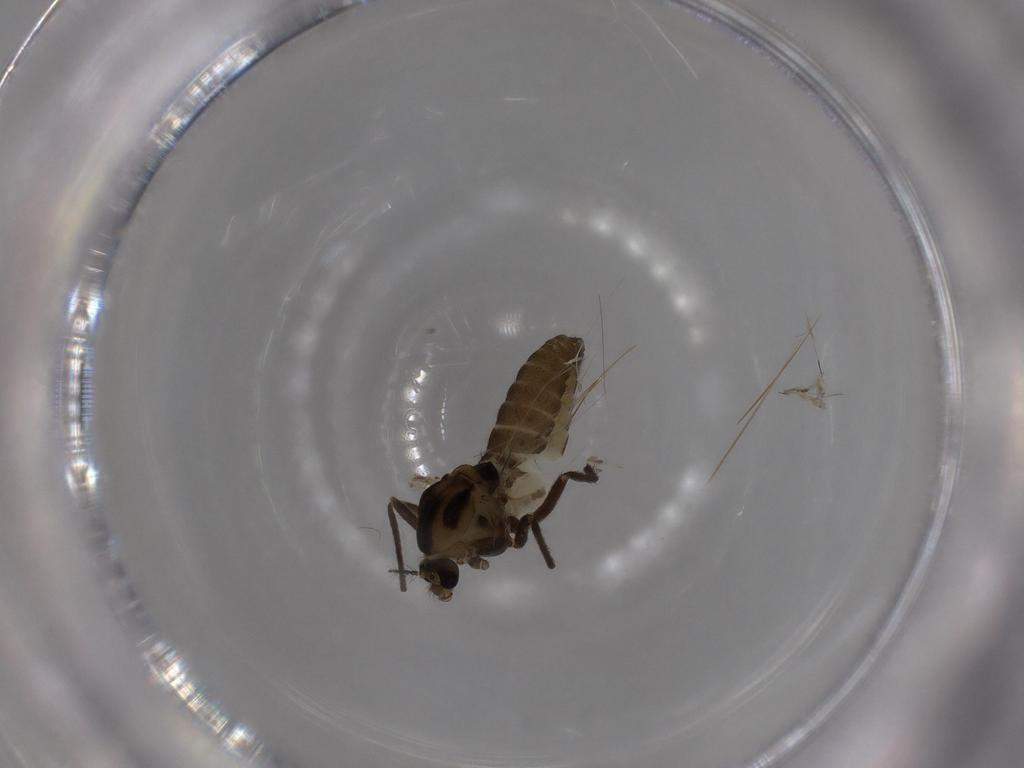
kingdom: Animalia
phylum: Arthropoda
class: Insecta
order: Diptera
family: Chironomidae
